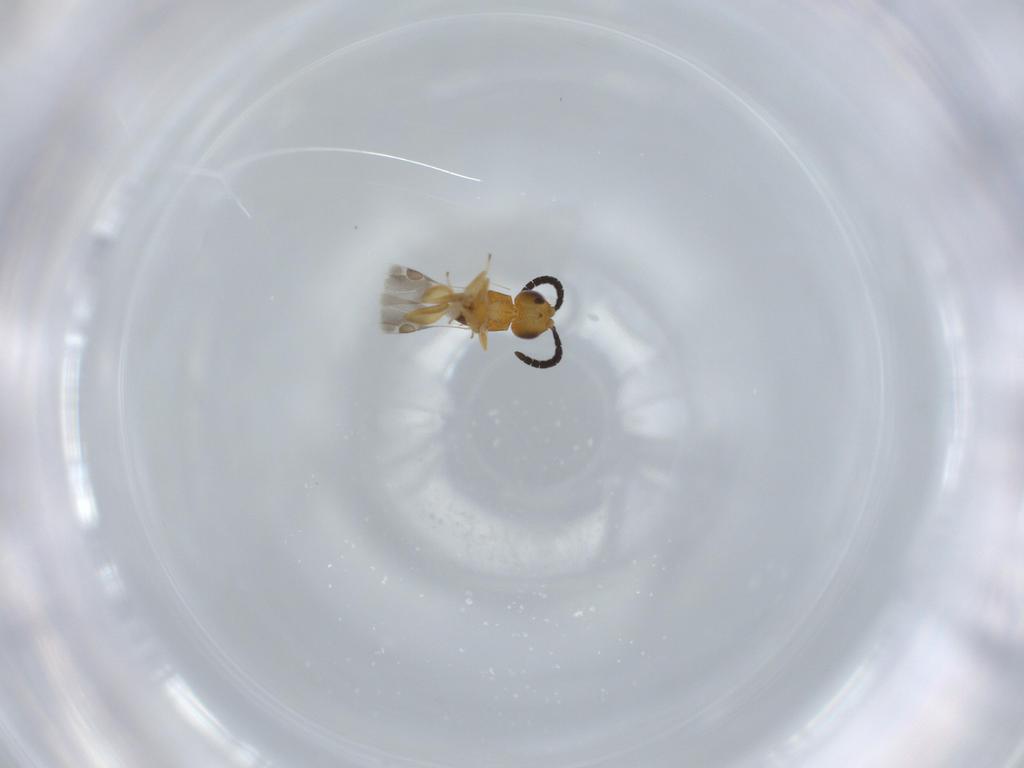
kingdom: Animalia
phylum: Arthropoda
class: Insecta
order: Hymenoptera
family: Megaspilidae
